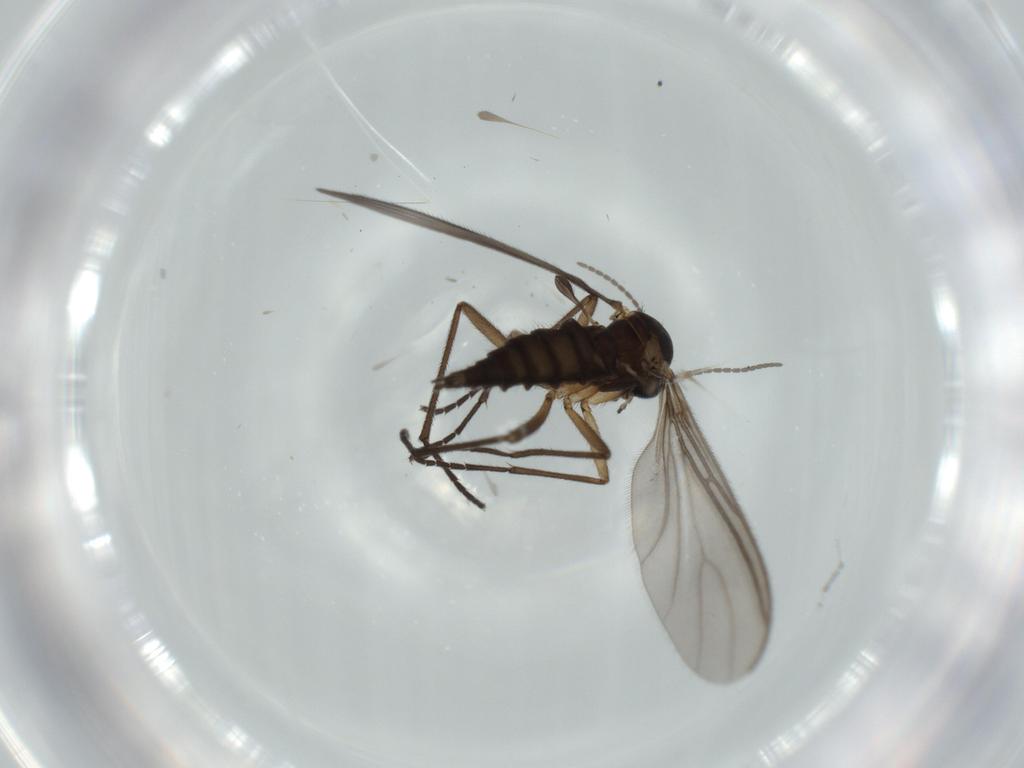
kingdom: Animalia
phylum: Arthropoda
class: Insecta
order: Diptera
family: Sciaridae
